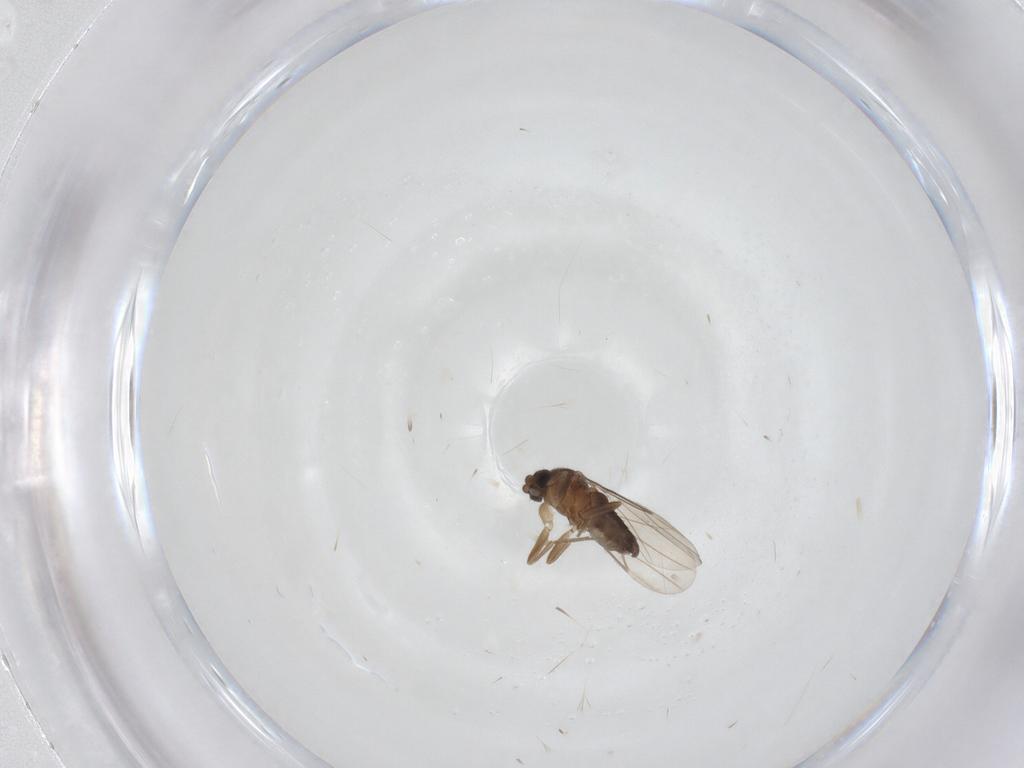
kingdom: Animalia
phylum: Arthropoda
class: Insecta
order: Diptera
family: Phoridae
